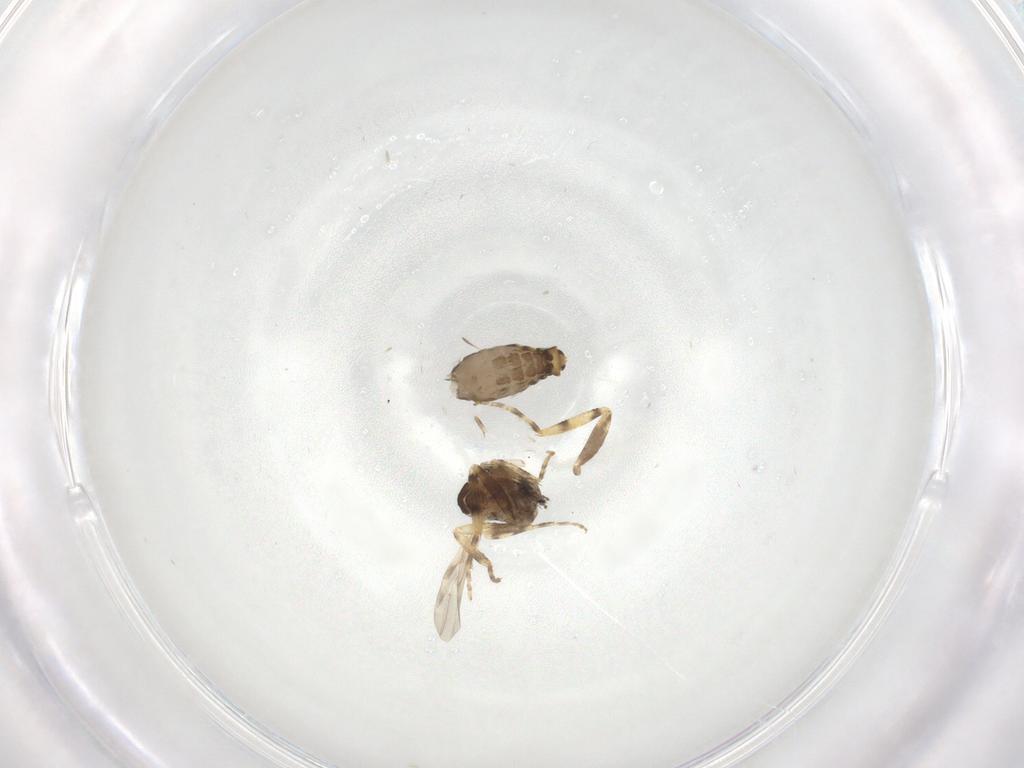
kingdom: Animalia
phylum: Arthropoda
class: Insecta
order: Diptera
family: Ceratopogonidae
